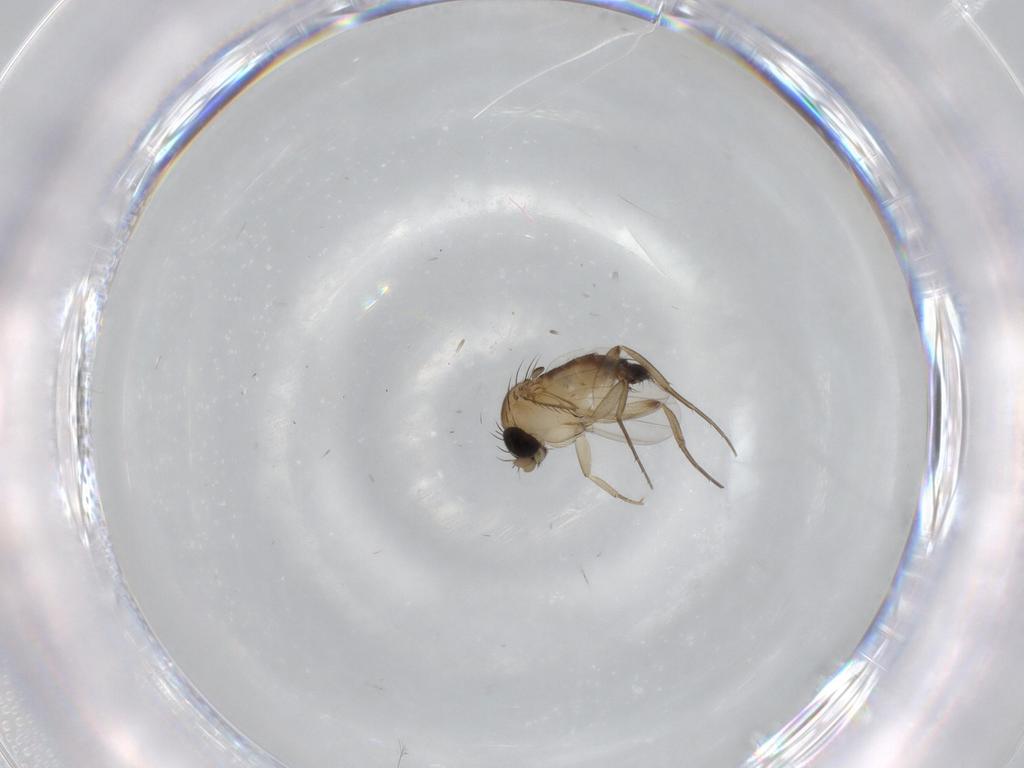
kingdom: Animalia
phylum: Arthropoda
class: Insecta
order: Diptera
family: Phoridae
